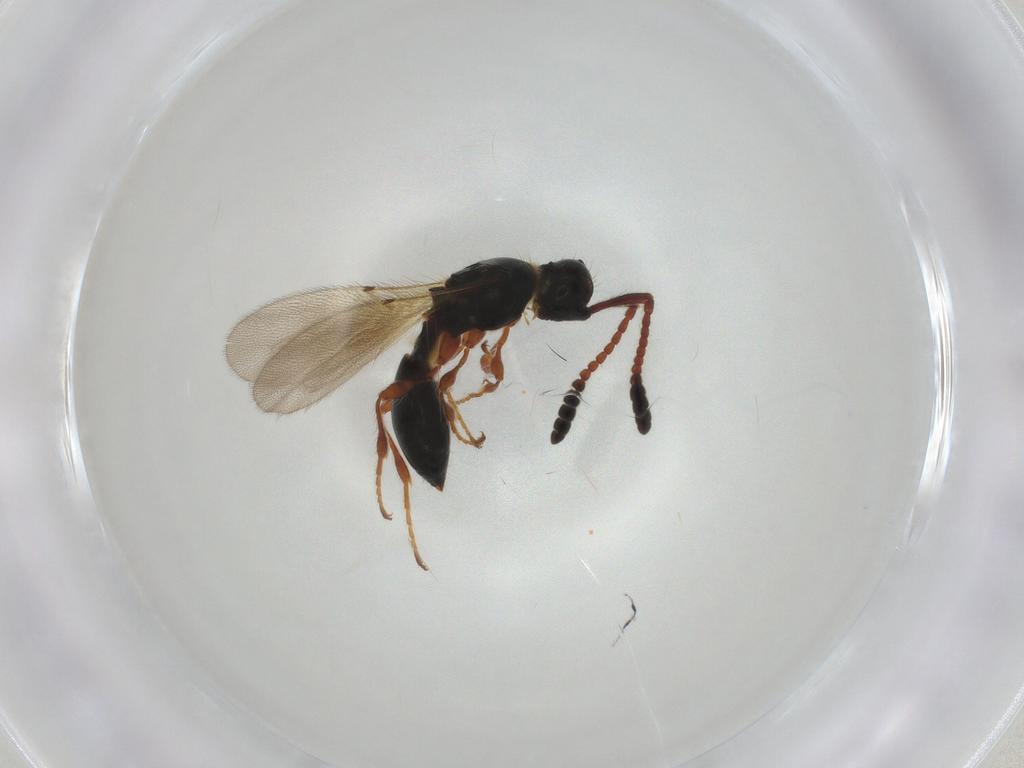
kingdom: Animalia
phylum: Arthropoda
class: Insecta
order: Hymenoptera
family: Diapriidae
